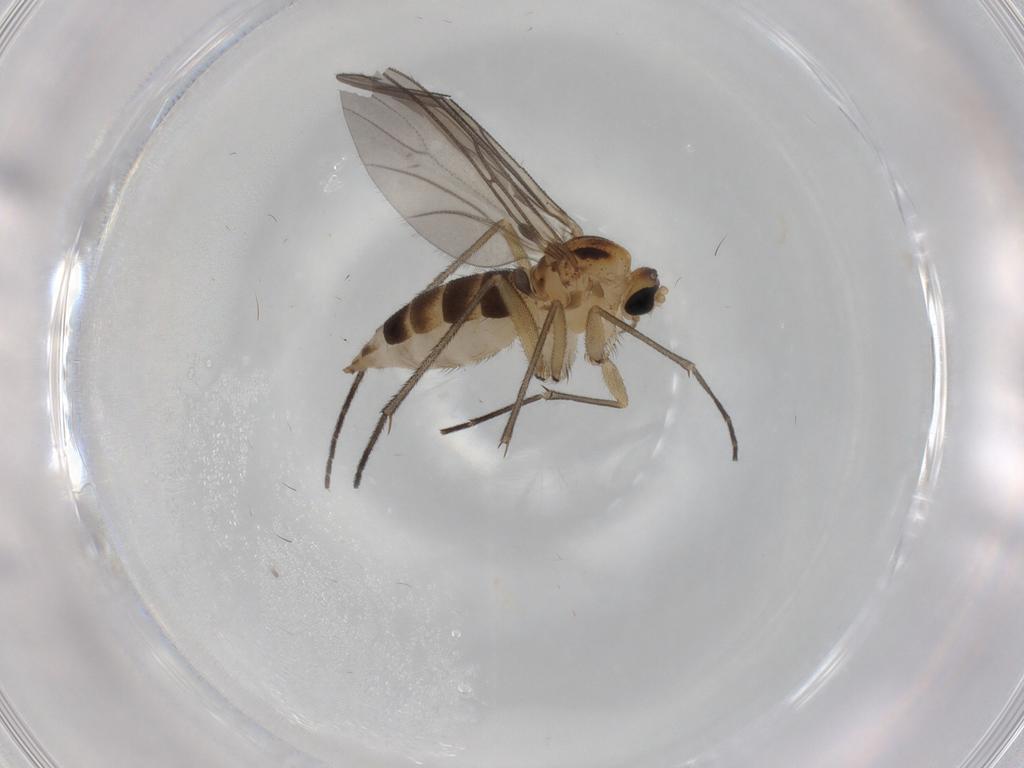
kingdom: Animalia
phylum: Arthropoda
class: Insecta
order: Diptera
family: Sciaridae
